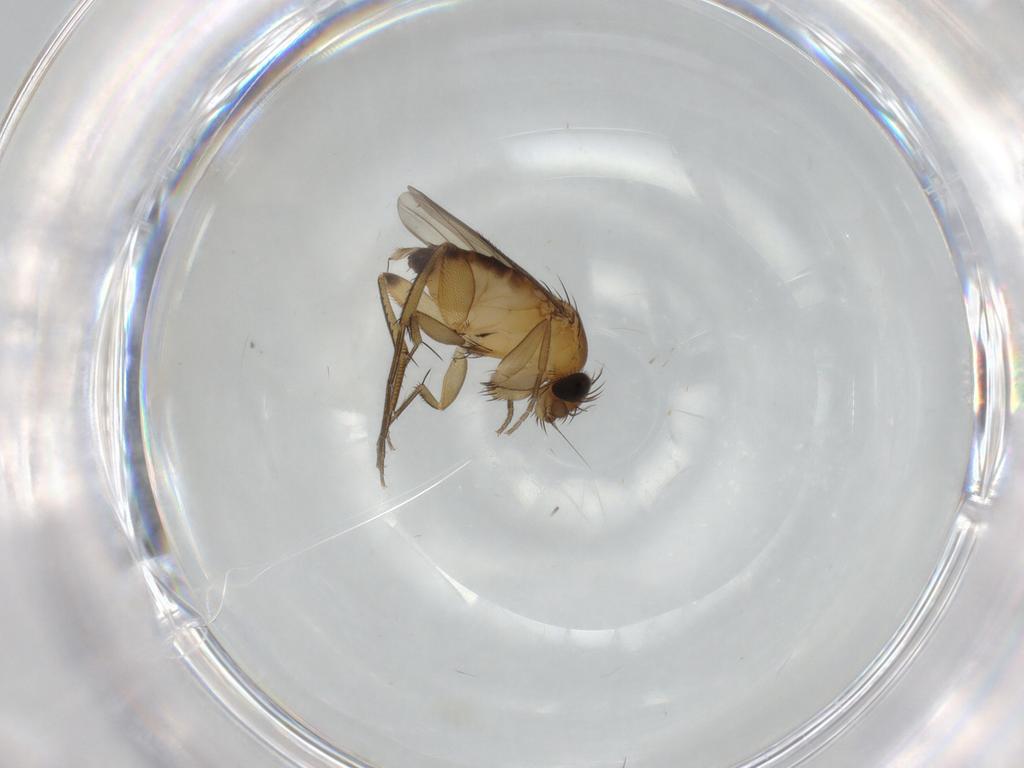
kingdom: Animalia
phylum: Arthropoda
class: Insecta
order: Diptera
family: Phoridae
